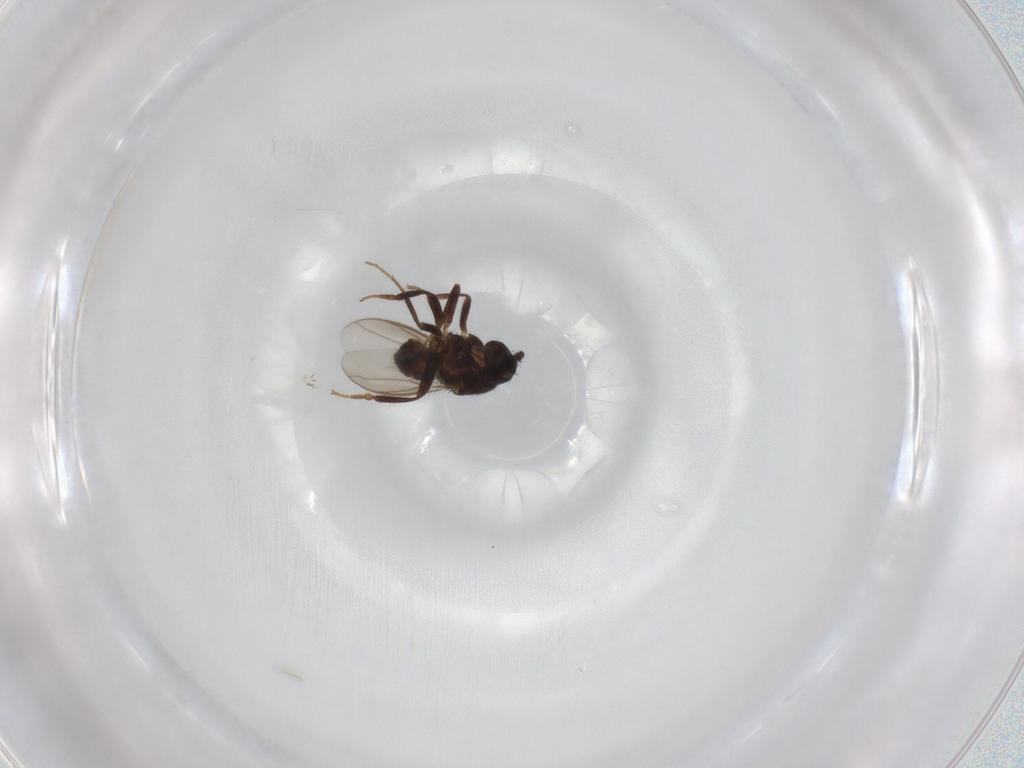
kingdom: Animalia
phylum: Arthropoda
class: Insecta
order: Diptera
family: Sphaeroceridae
